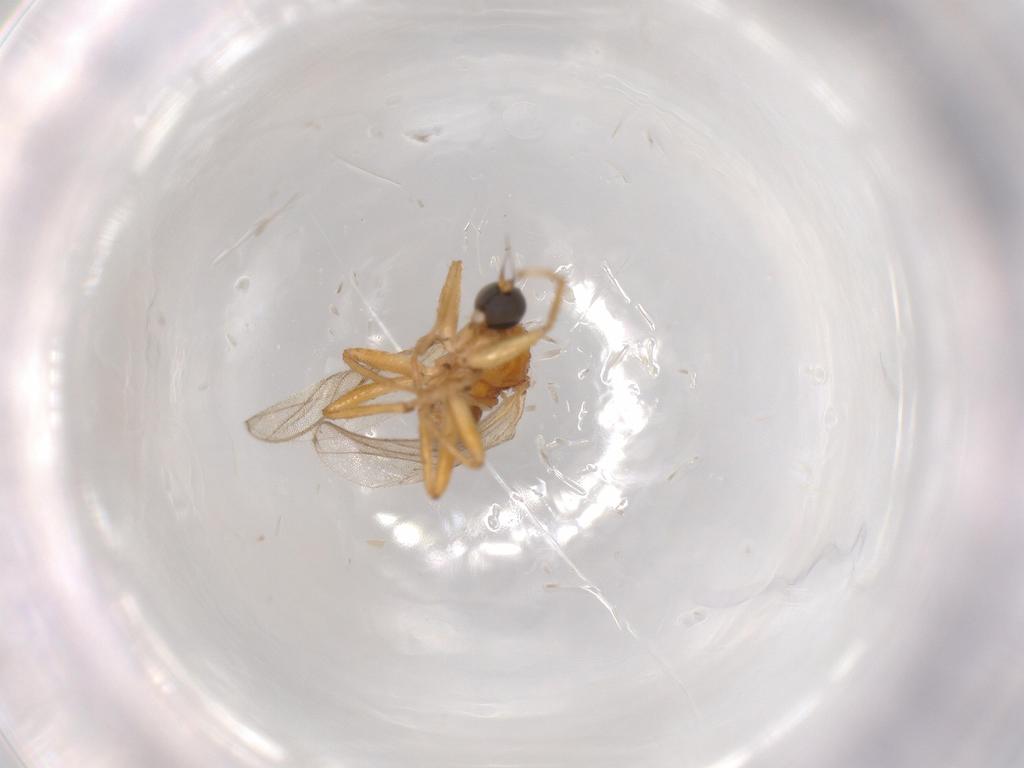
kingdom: Animalia
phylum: Arthropoda
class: Insecta
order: Diptera
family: Hybotidae
